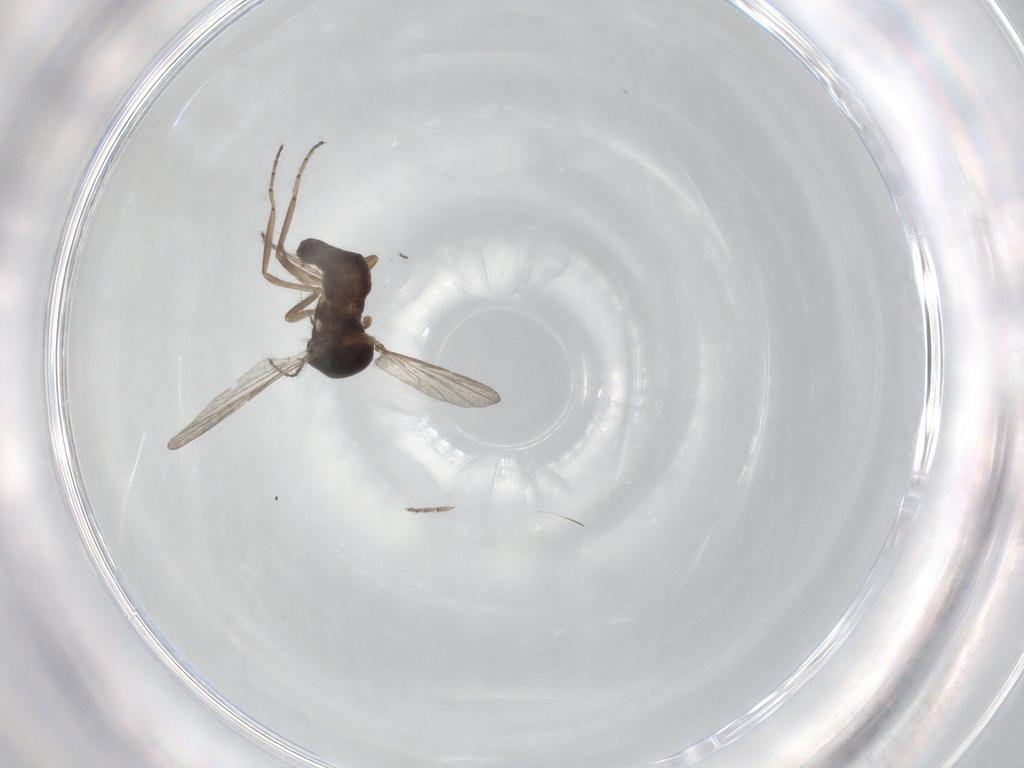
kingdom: Animalia
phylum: Arthropoda
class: Insecta
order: Diptera
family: Ceratopogonidae
